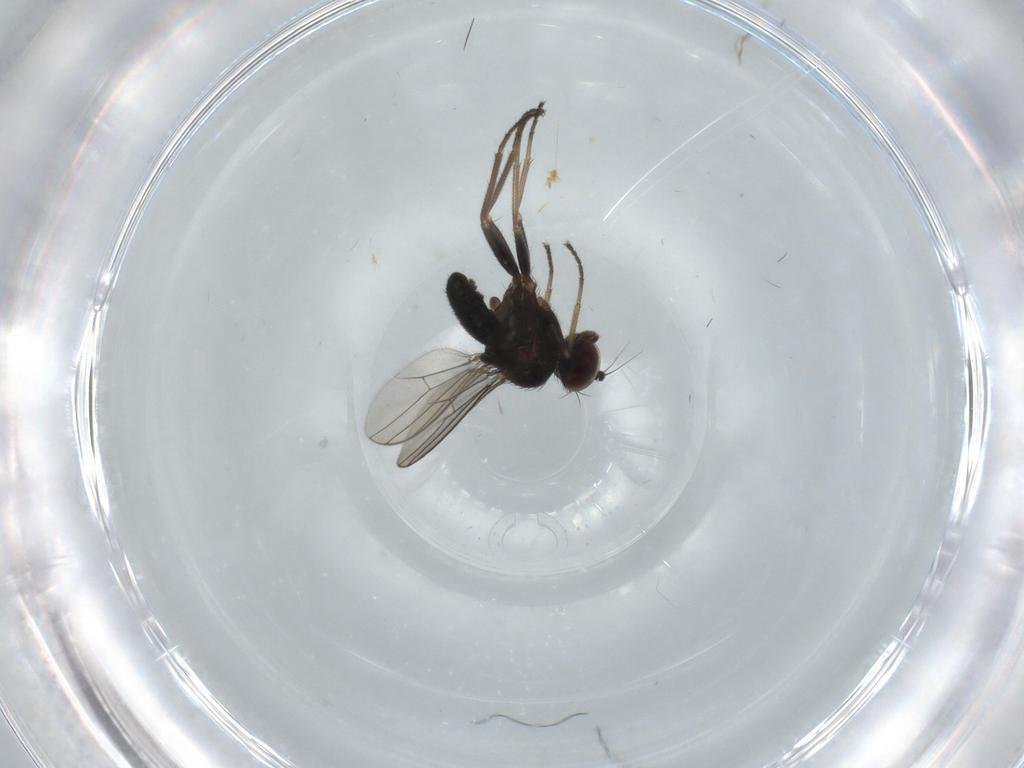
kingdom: Animalia
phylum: Arthropoda
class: Insecta
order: Diptera
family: Dolichopodidae
